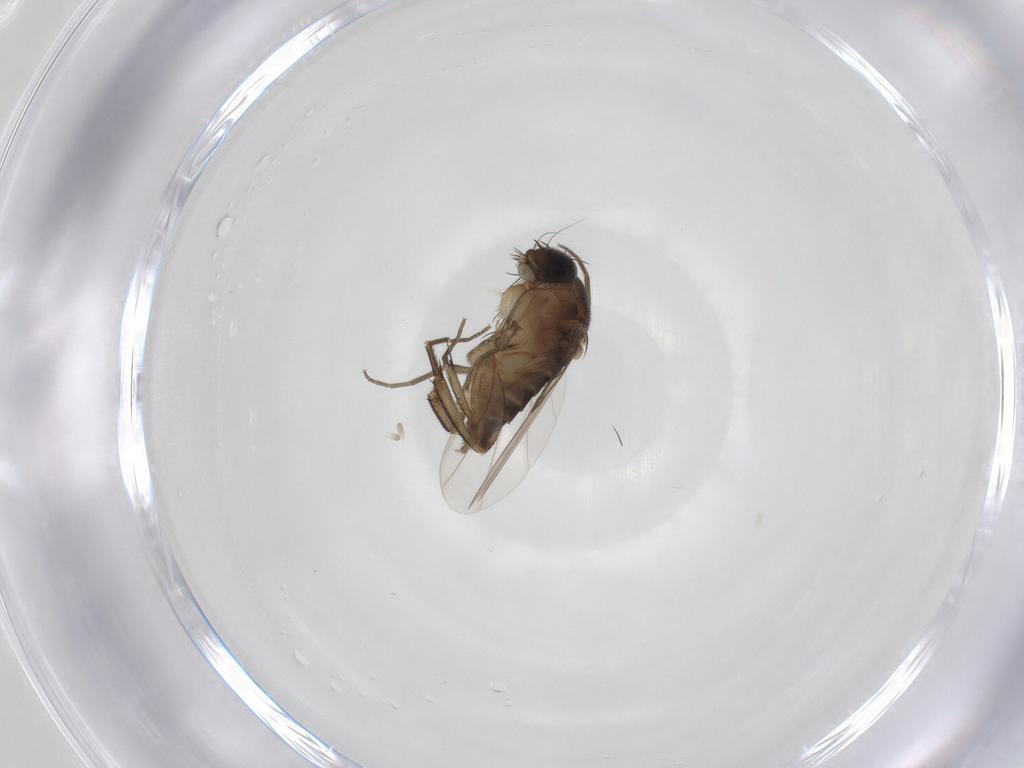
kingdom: Animalia
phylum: Arthropoda
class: Insecta
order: Diptera
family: Phoridae
